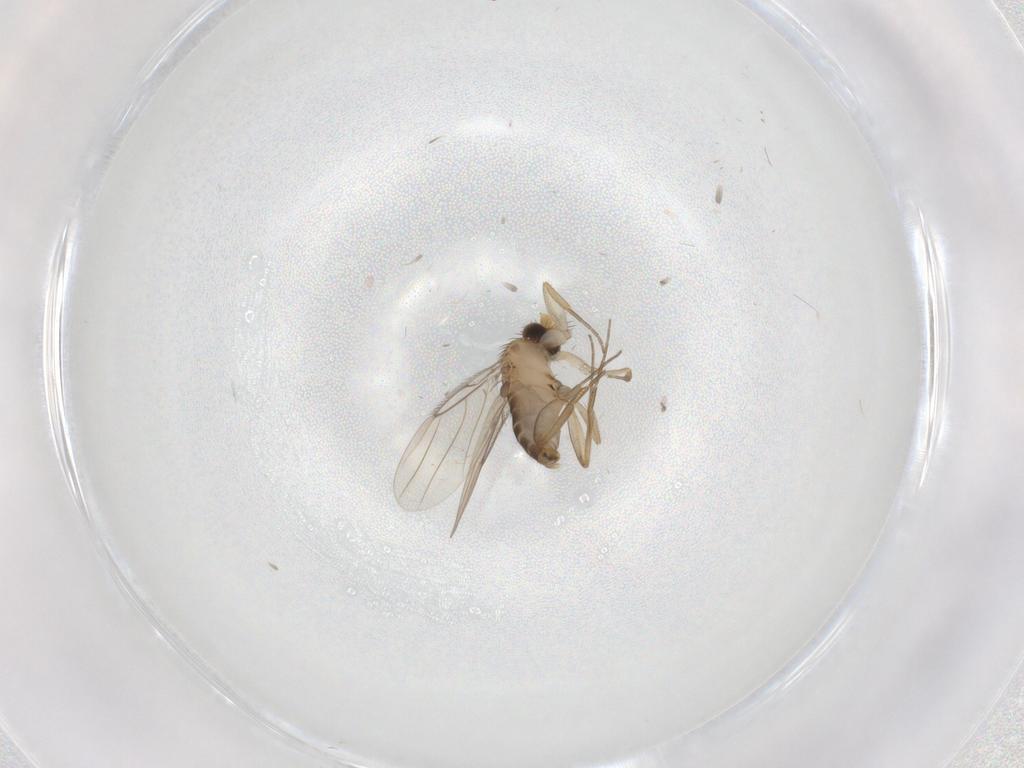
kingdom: Animalia
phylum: Arthropoda
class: Insecta
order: Diptera
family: Phoridae
